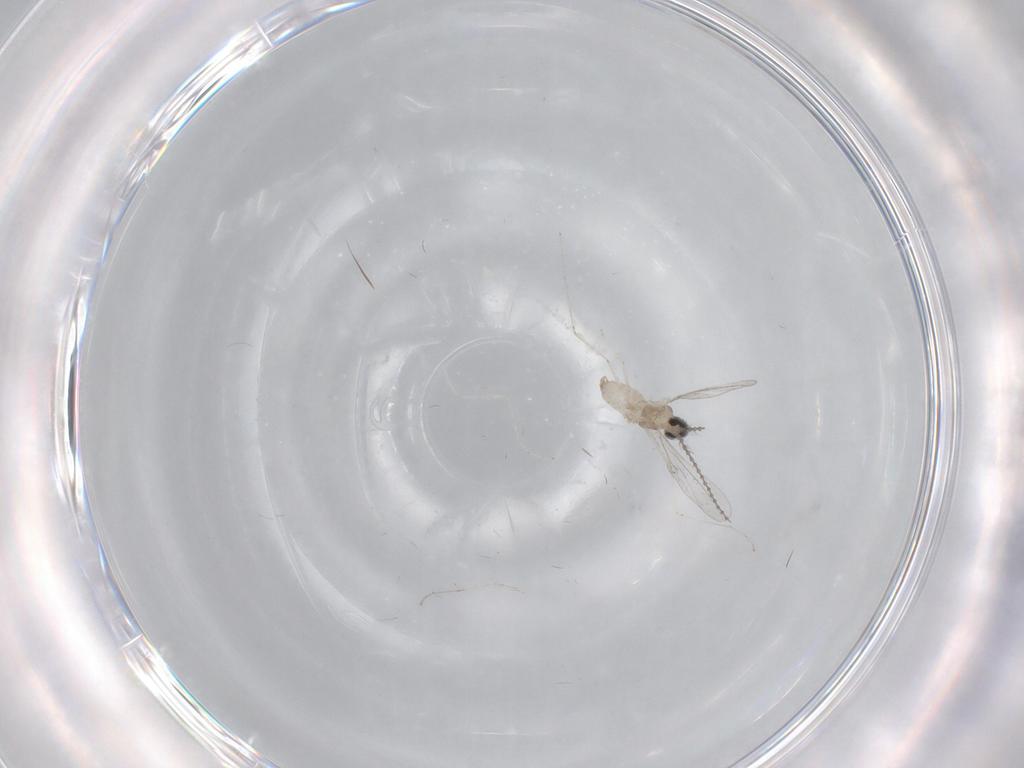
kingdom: Animalia
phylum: Arthropoda
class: Insecta
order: Diptera
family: Cecidomyiidae
